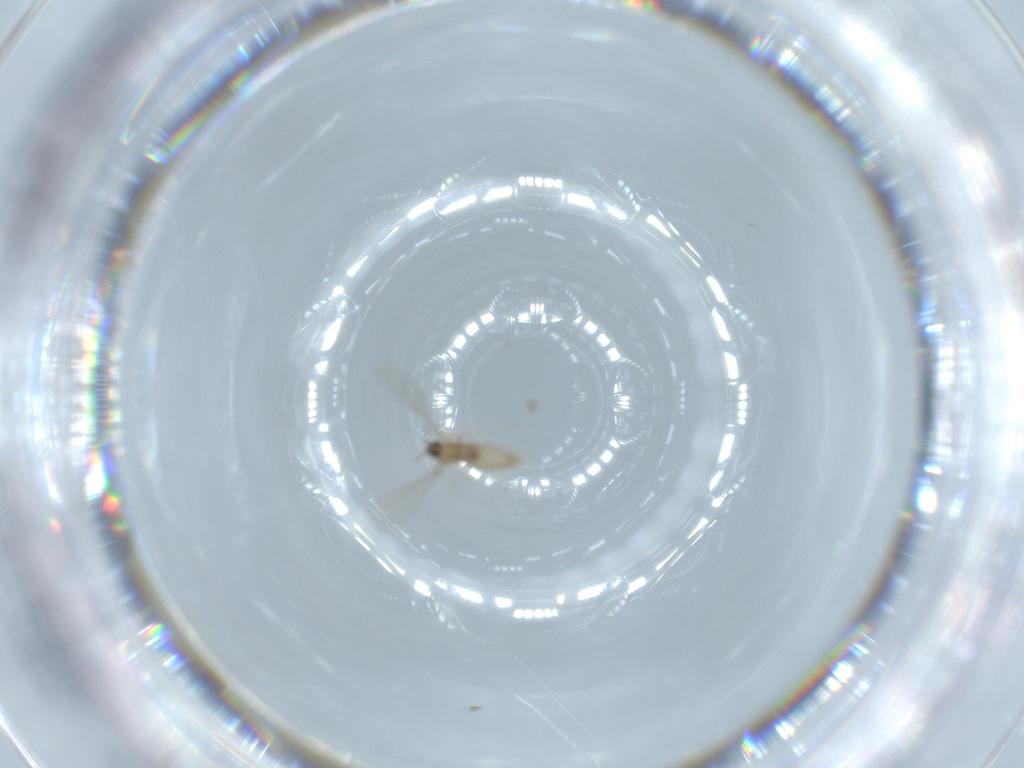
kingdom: Animalia
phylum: Arthropoda
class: Insecta
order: Diptera
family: Cecidomyiidae
